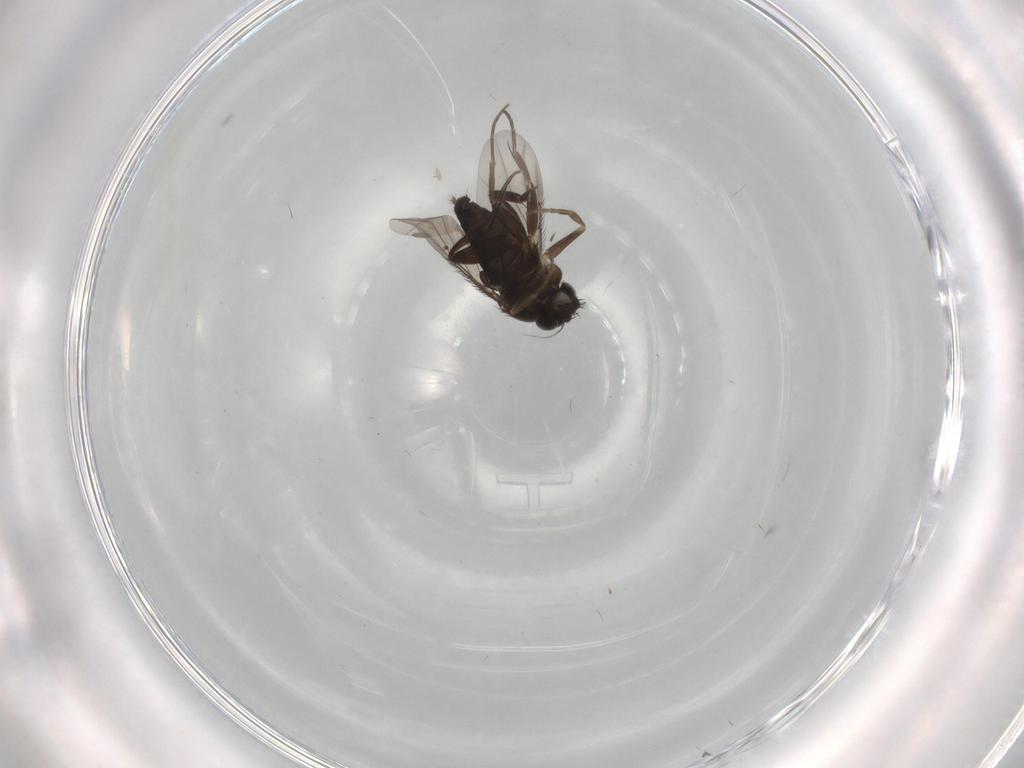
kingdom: Animalia
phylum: Arthropoda
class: Insecta
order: Diptera
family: Phoridae
